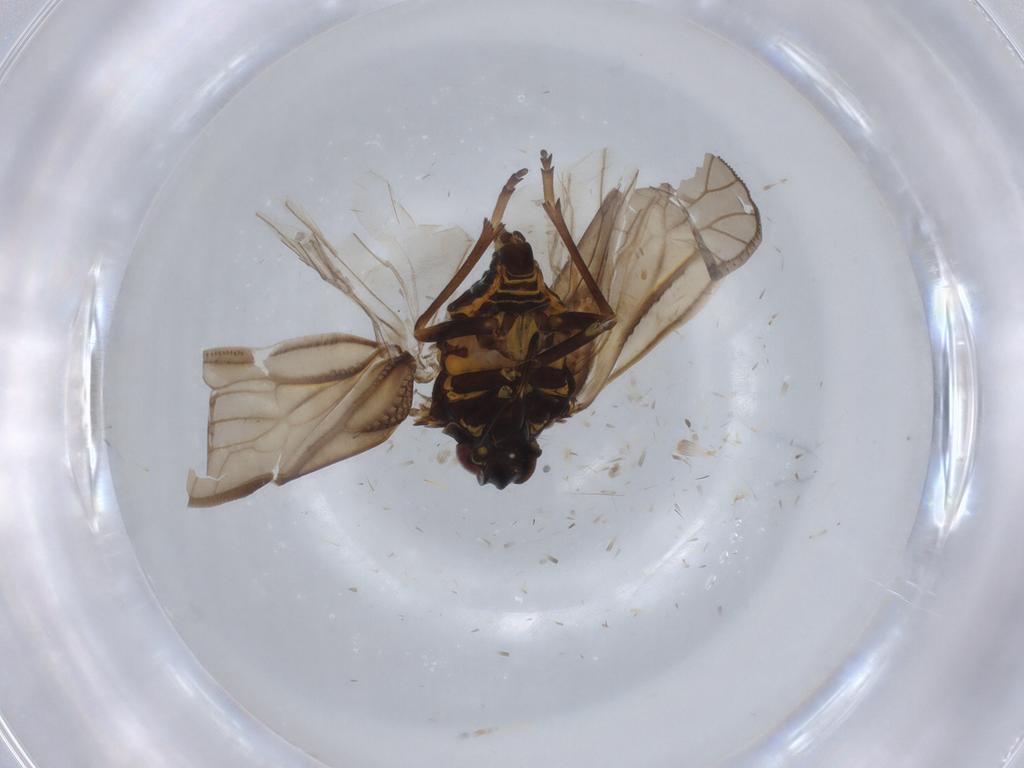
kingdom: Animalia
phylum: Arthropoda
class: Insecta
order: Hemiptera
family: Meenoplidae
